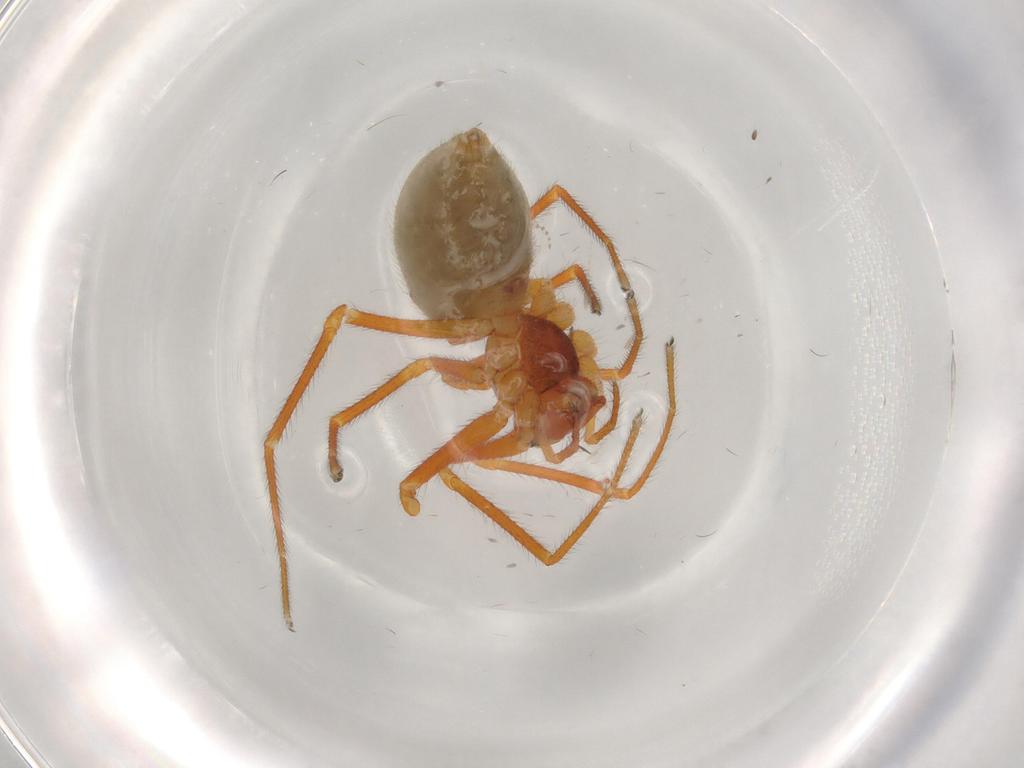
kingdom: Animalia
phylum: Arthropoda
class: Arachnida
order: Araneae
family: Linyphiidae
